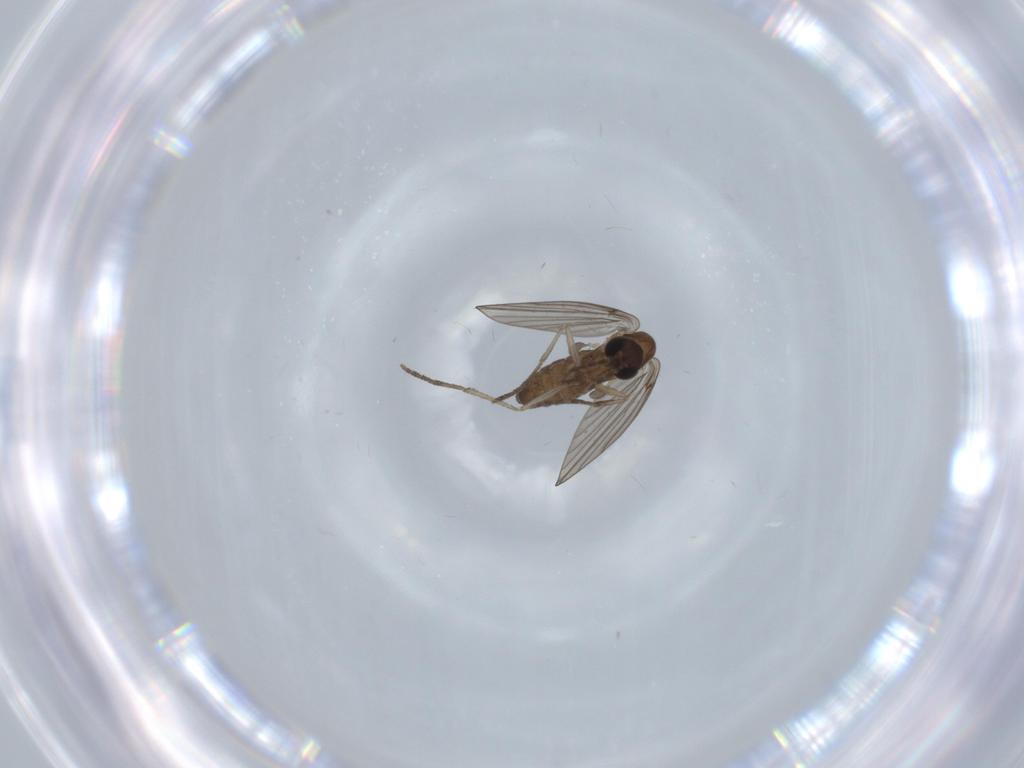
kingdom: Animalia
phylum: Arthropoda
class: Insecta
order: Diptera
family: Psychodidae
